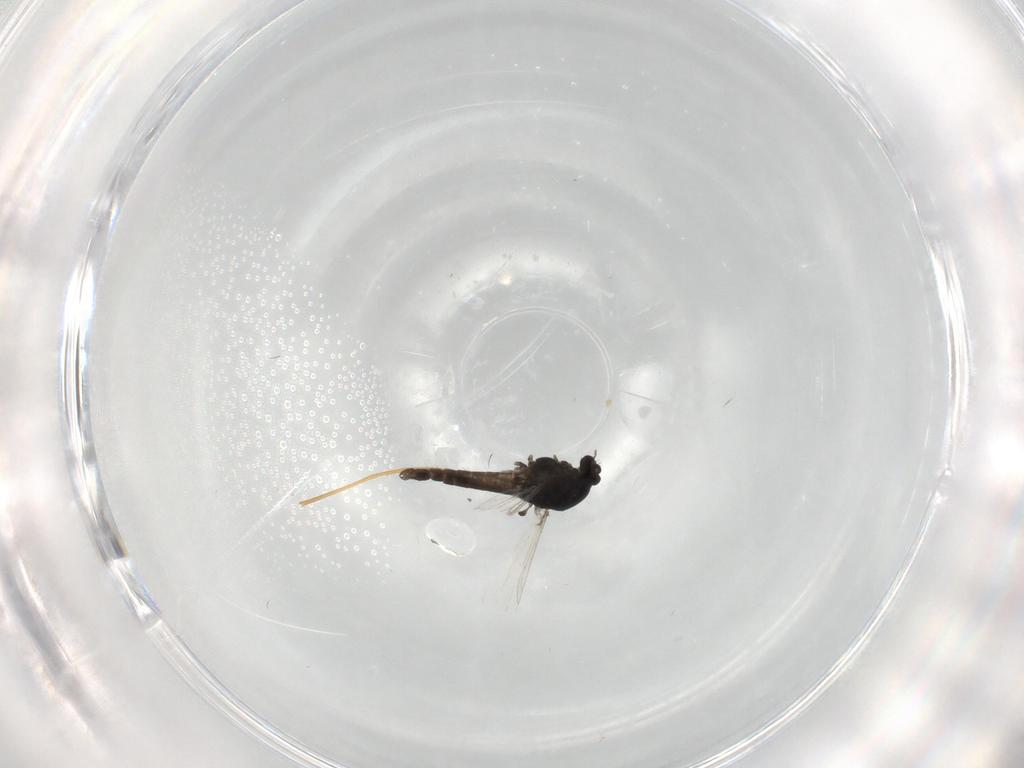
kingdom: Animalia
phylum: Arthropoda
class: Insecta
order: Diptera
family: Chironomidae
